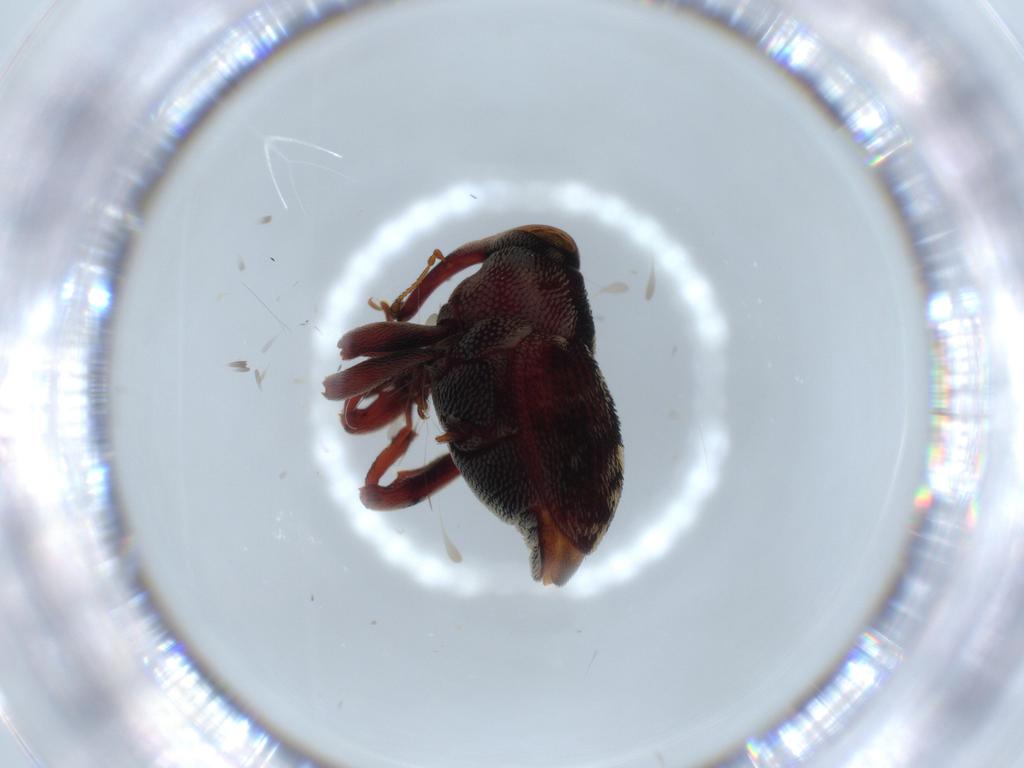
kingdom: Animalia
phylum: Arthropoda
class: Insecta
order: Coleoptera
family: Curculionidae
